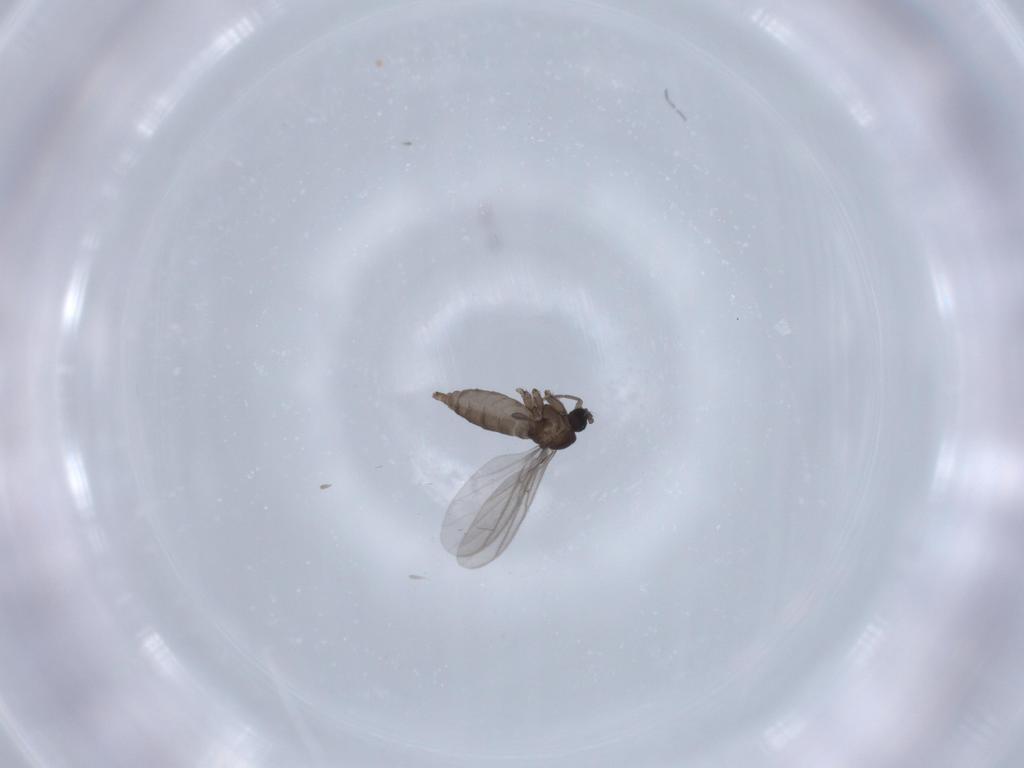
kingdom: Animalia
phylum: Arthropoda
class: Insecta
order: Diptera
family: Sciaridae
